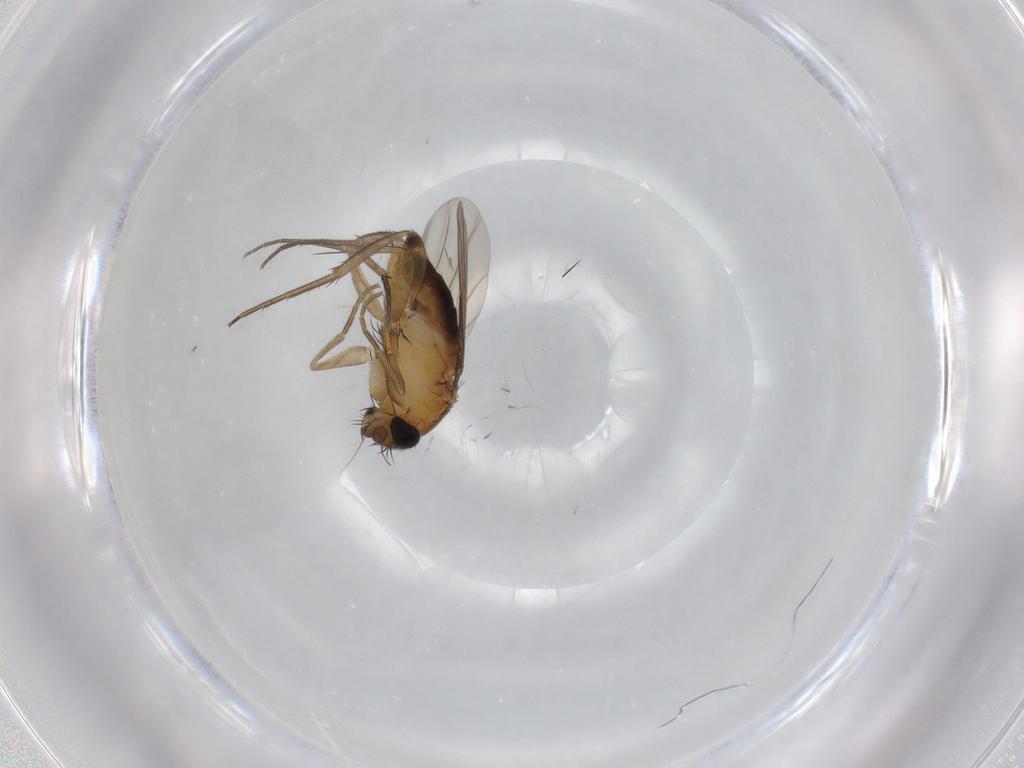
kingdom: Animalia
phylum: Arthropoda
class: Insecta
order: Diptera
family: Phoridae
